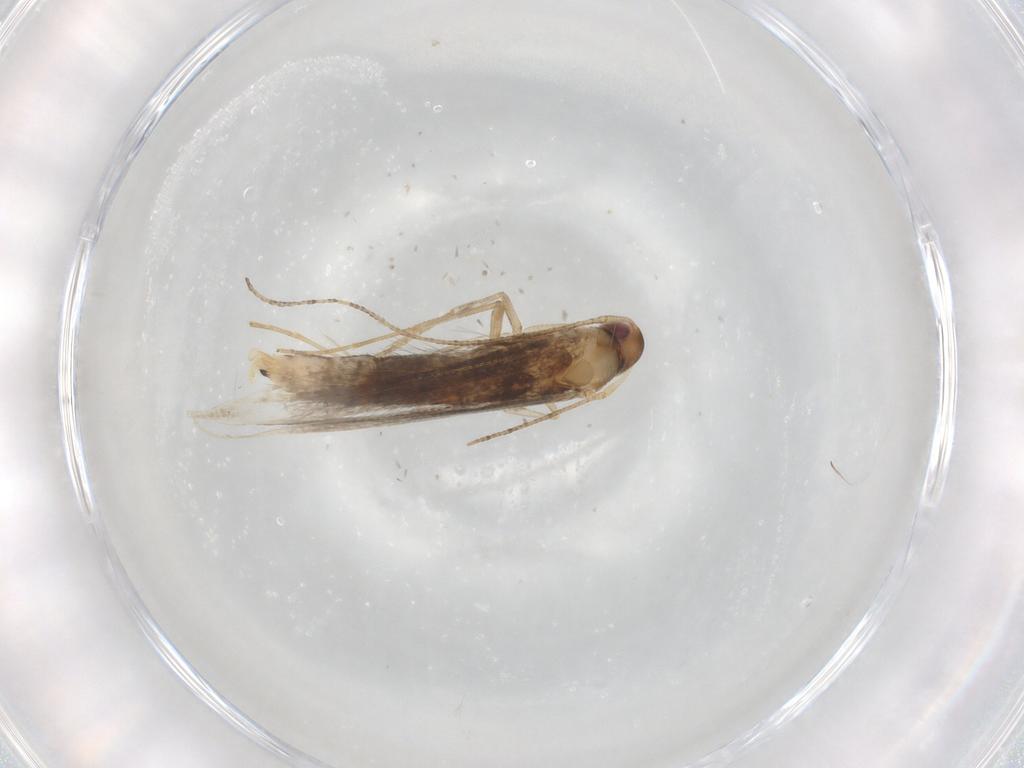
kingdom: Animalia
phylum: Arthropoda
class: Insecta
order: Lepidoptera
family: Cosmopterigidae
